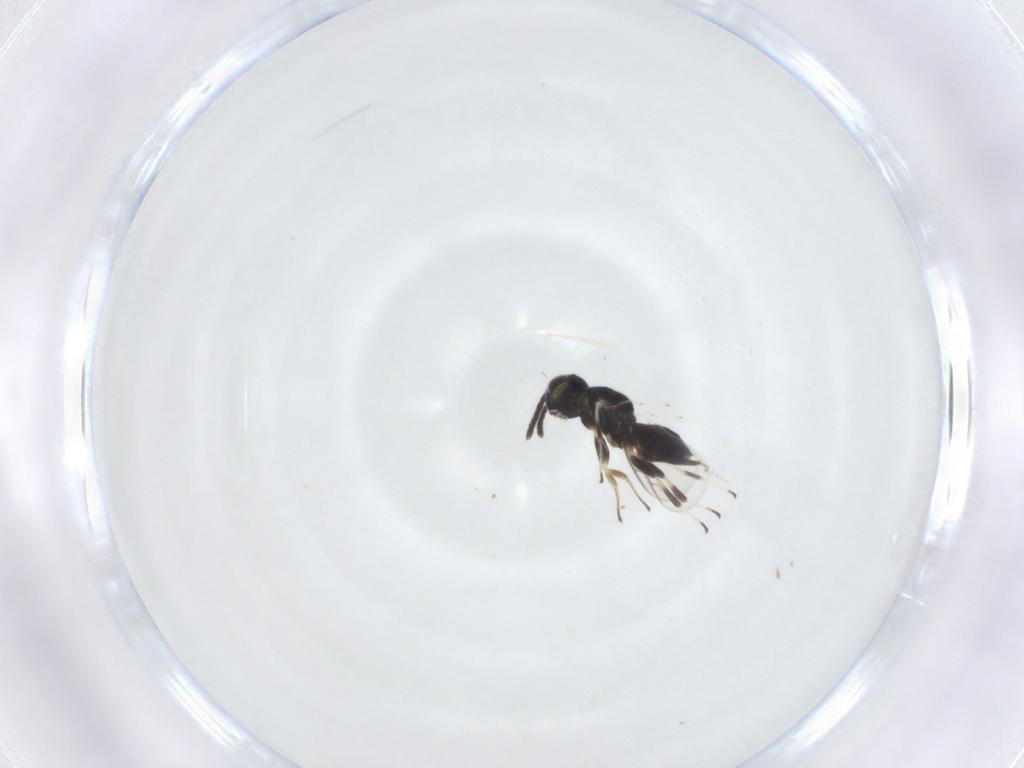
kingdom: Animalia
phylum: Arthropoda
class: Insecta
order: Hymenoptera
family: Eupelmidae
